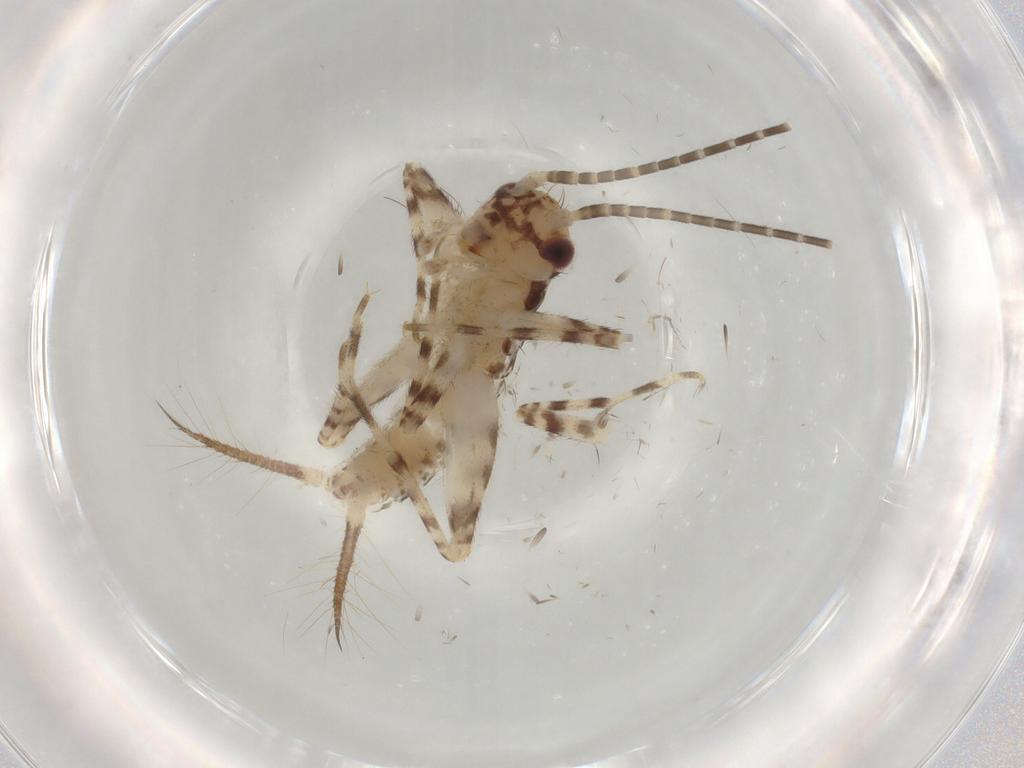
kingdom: Animalia
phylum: Arthropoda
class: Insecta
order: Orthoptera
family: Gryllidae
